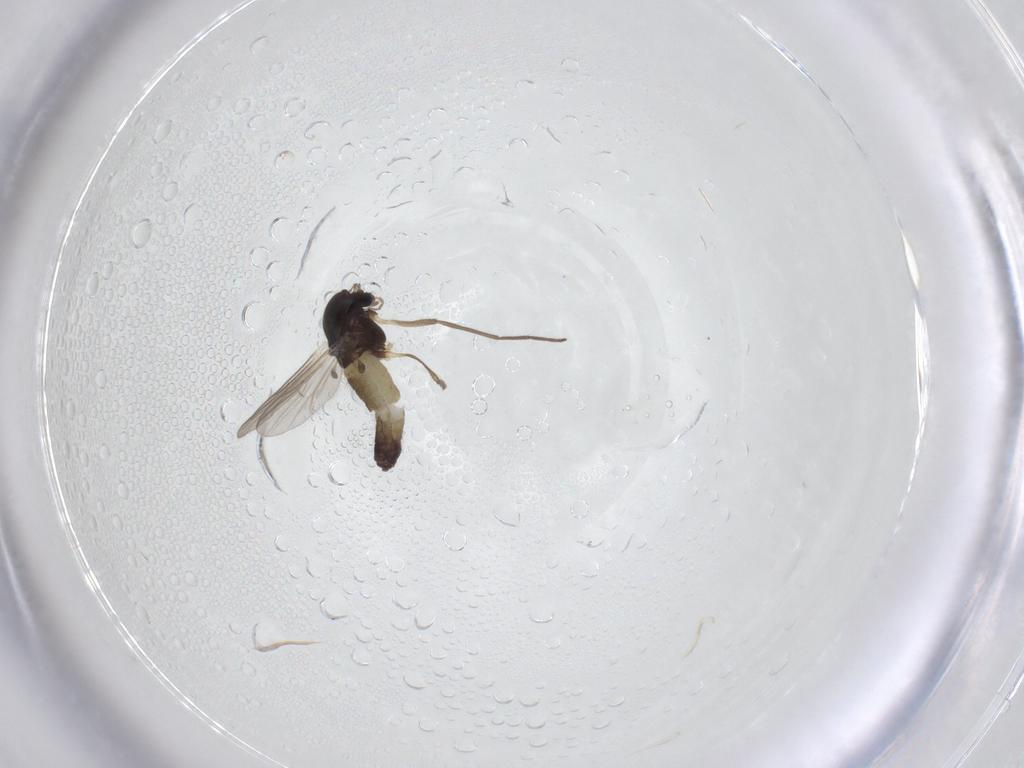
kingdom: Animalia
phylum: Arthropoda
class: Insecta
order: Diptera
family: Chironomidae
